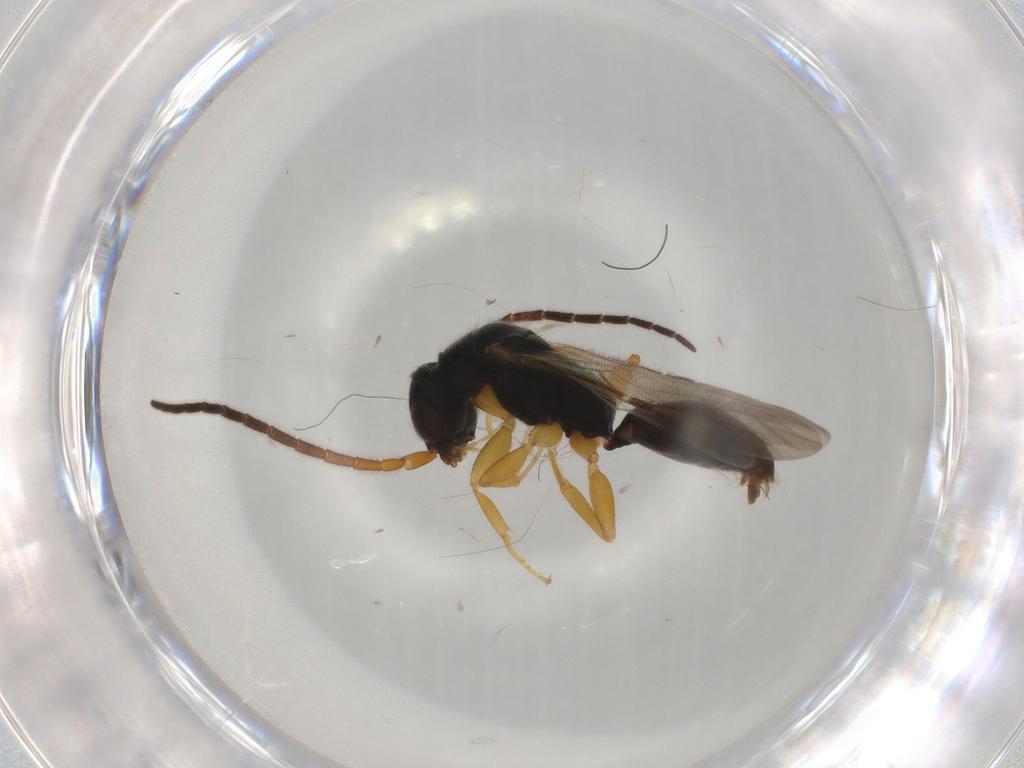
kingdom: Animalia
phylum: Arthropoda
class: Insecta
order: Hymenoptera
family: Bethylidae
